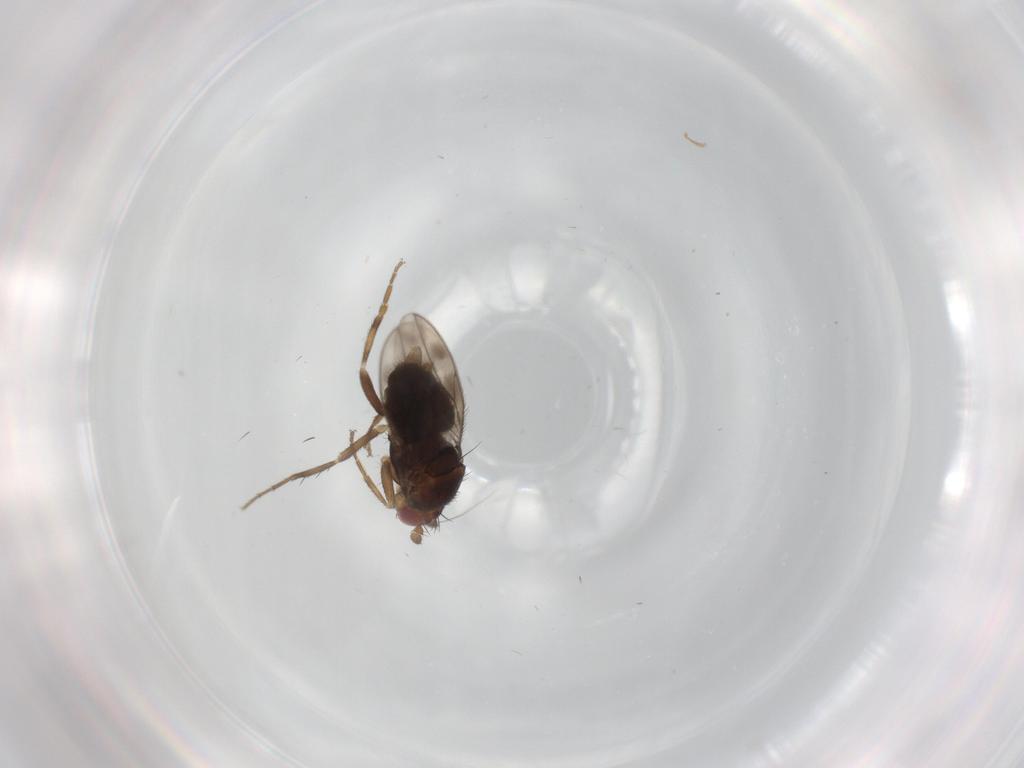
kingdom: Animalia
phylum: Arthropoda
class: Insecta
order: Diptera
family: Sphaeroceridae
